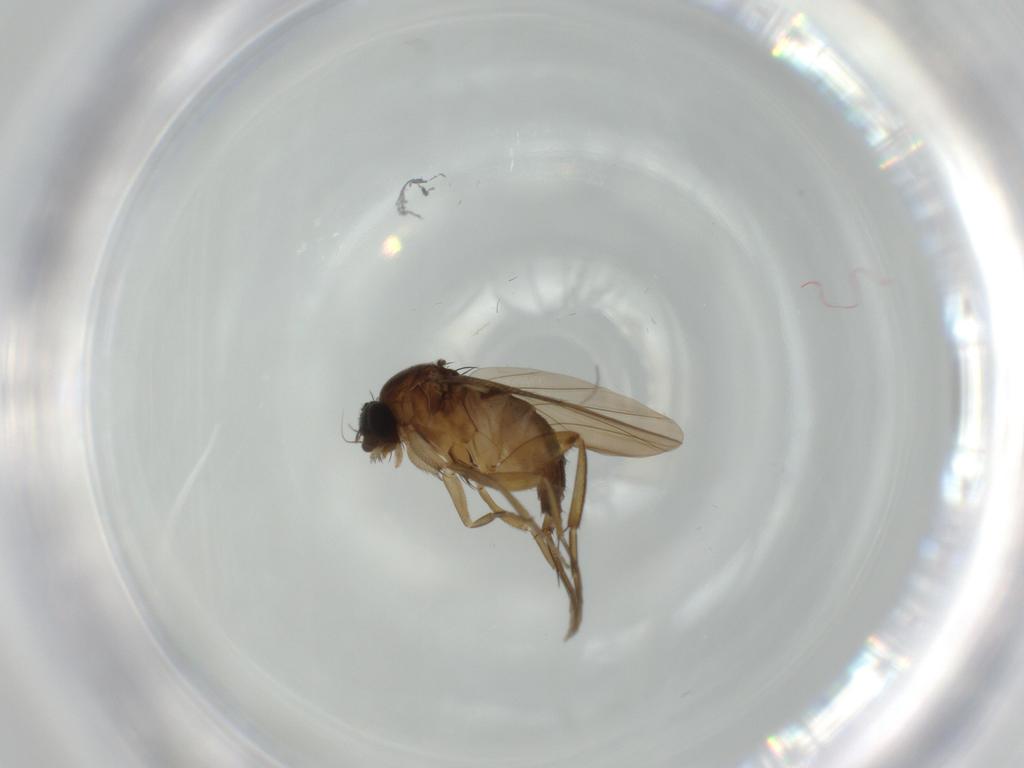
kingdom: Animalia
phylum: Arthropoda
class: Insecta
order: Diptera
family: Phoridae
